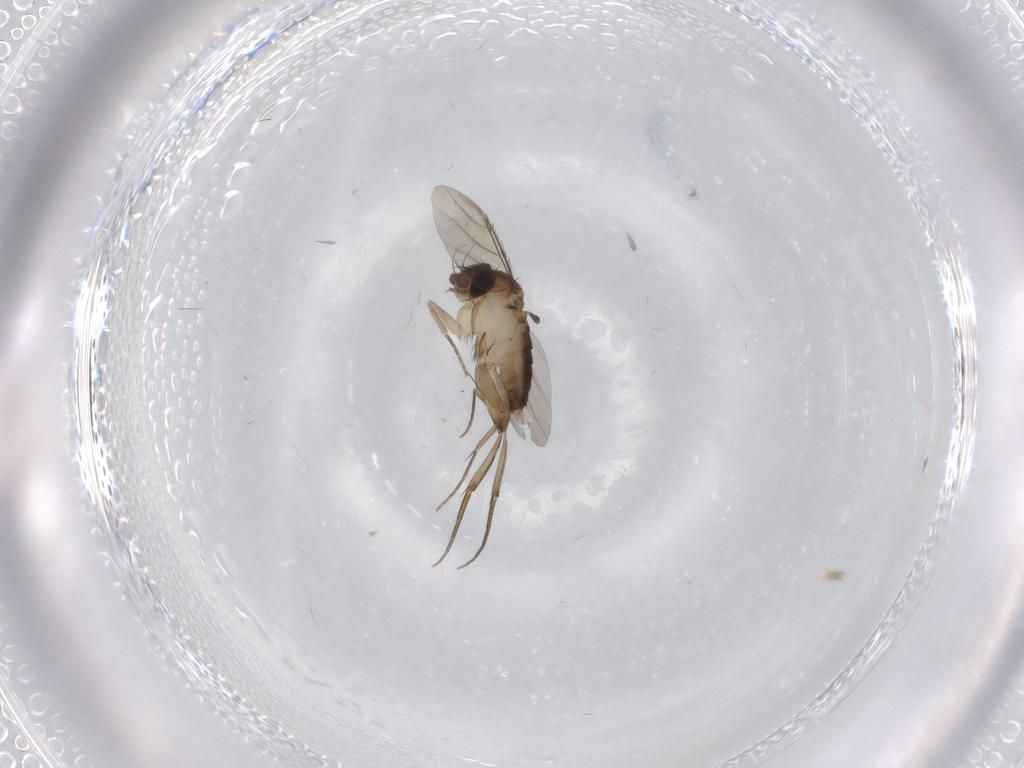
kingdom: Animalia
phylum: Arthropoda
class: Insecta
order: Diptera
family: Phoridae
